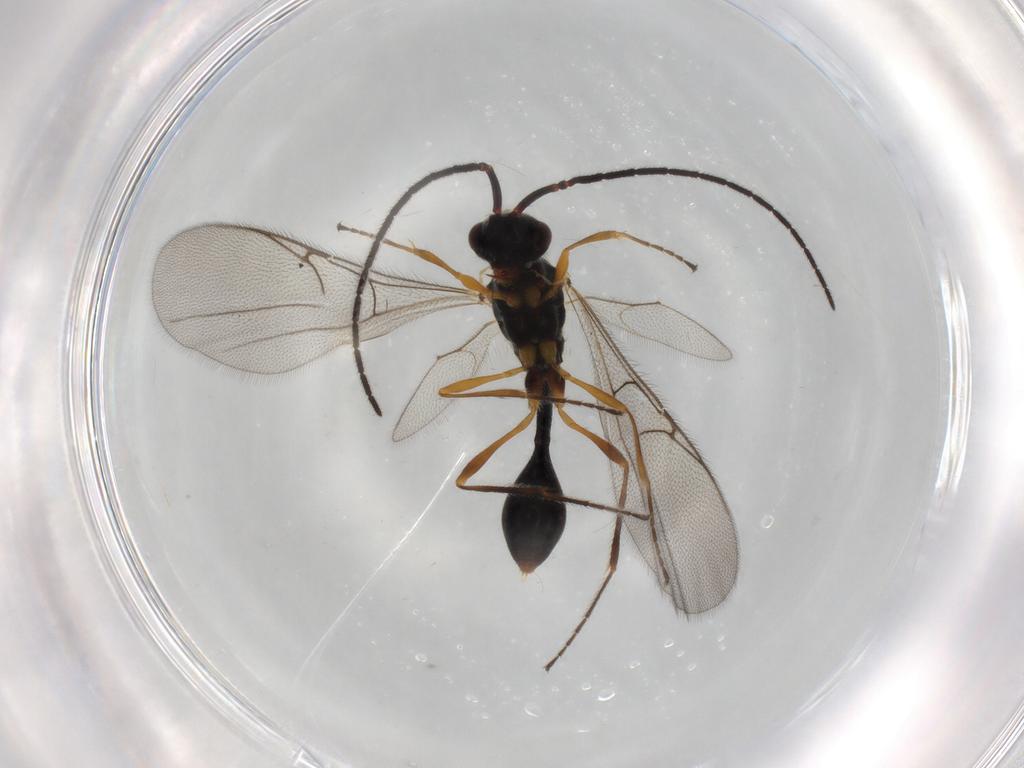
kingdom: Animalia
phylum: Arthropoda
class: Insecta
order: Hymenoptera
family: Diapriidae
